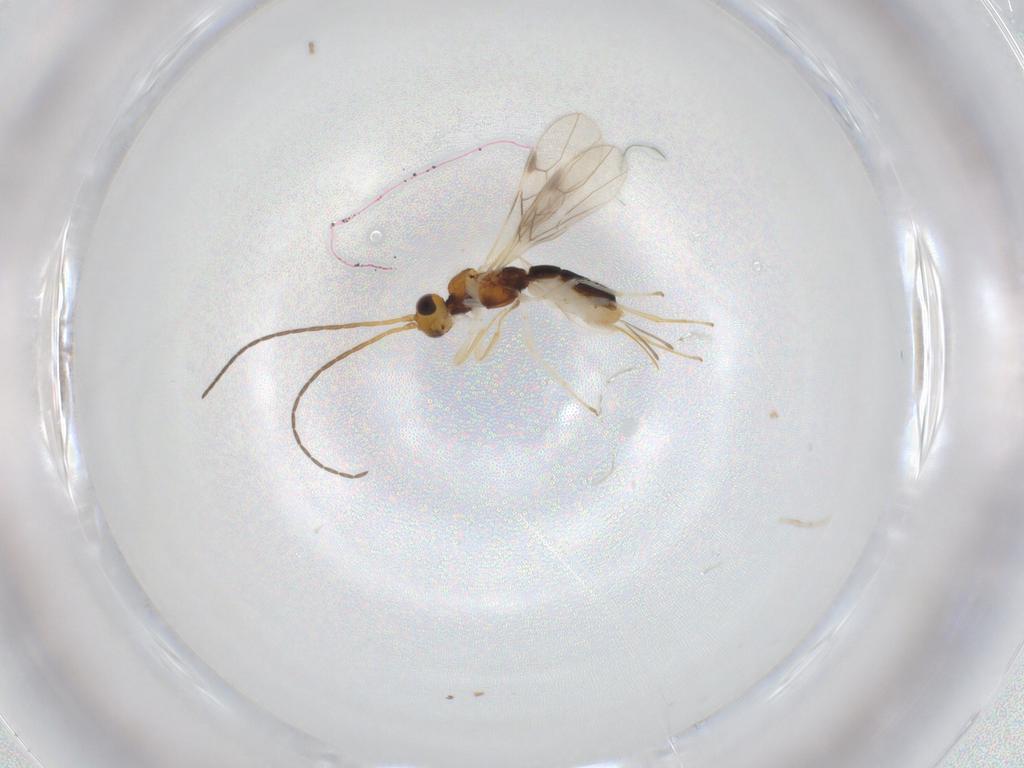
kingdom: Animalia
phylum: Arthropoda
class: Insecta
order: Hymenoptera
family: Braconidae
